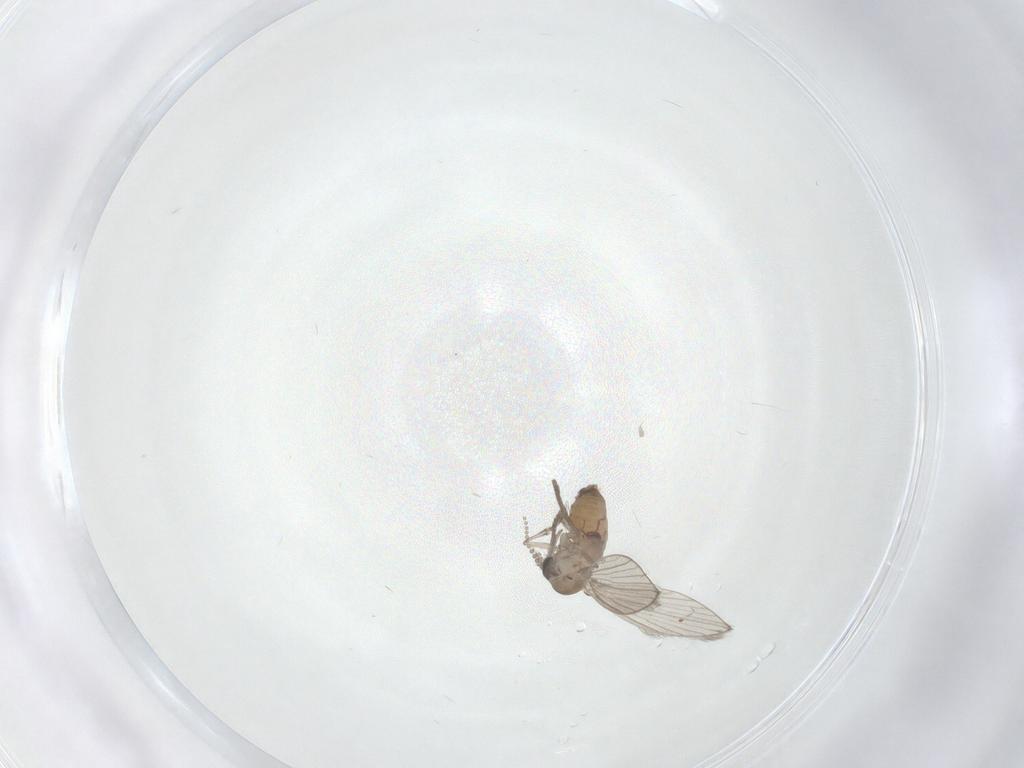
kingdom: Animalia
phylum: Arthropoda
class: Insecta
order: Diptera
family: Psychodidae
